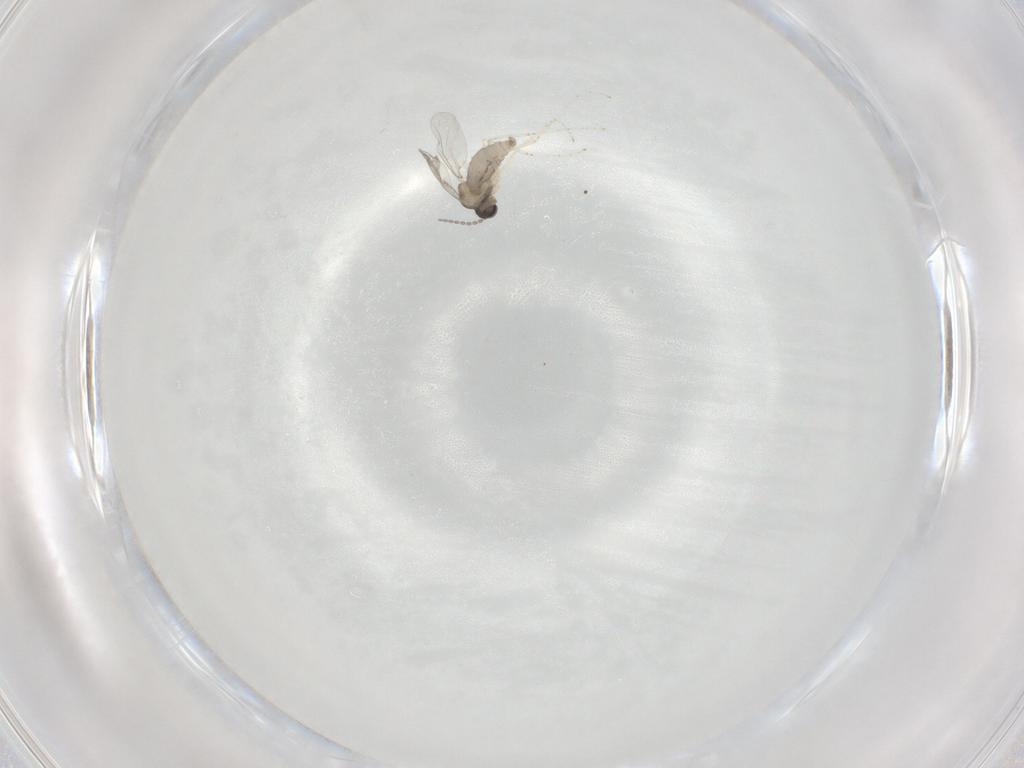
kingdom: Animalia
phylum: Arthropoda
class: Insecta
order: Diptera
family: Cecidomyiidae
